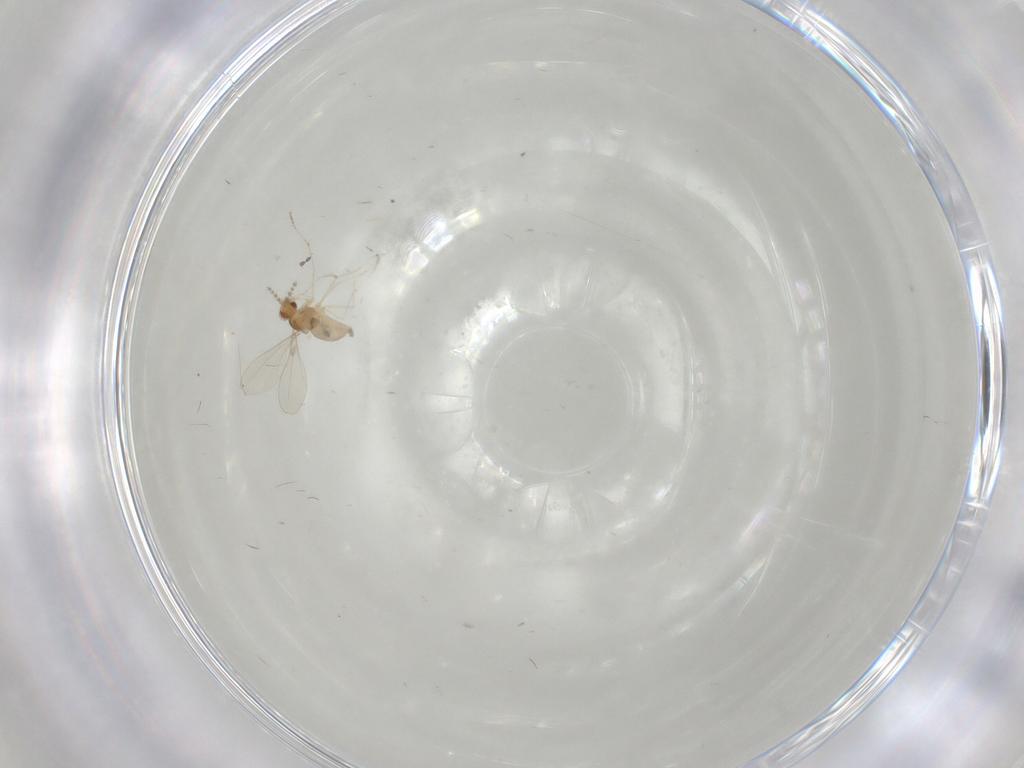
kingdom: Animalia
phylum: Arthropoda
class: Insecta
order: Diptera
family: Cecidomyiidae
